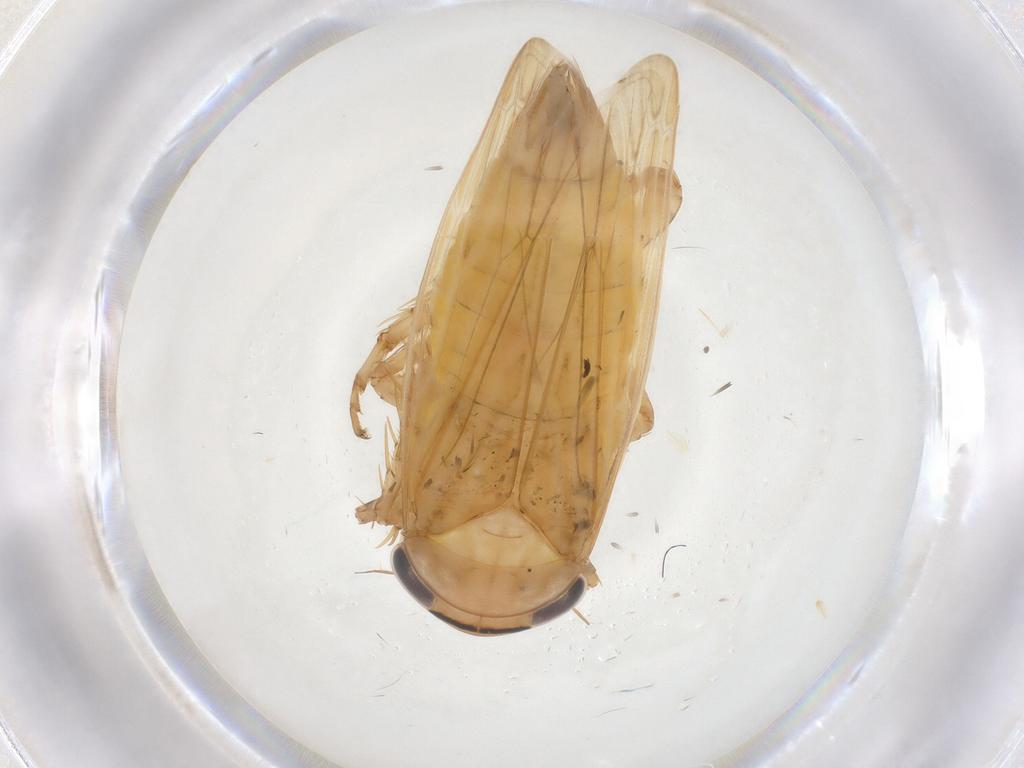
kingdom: Animalia
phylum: Arthropoda
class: Insecta
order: Hemiptera
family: Cicadellidae
